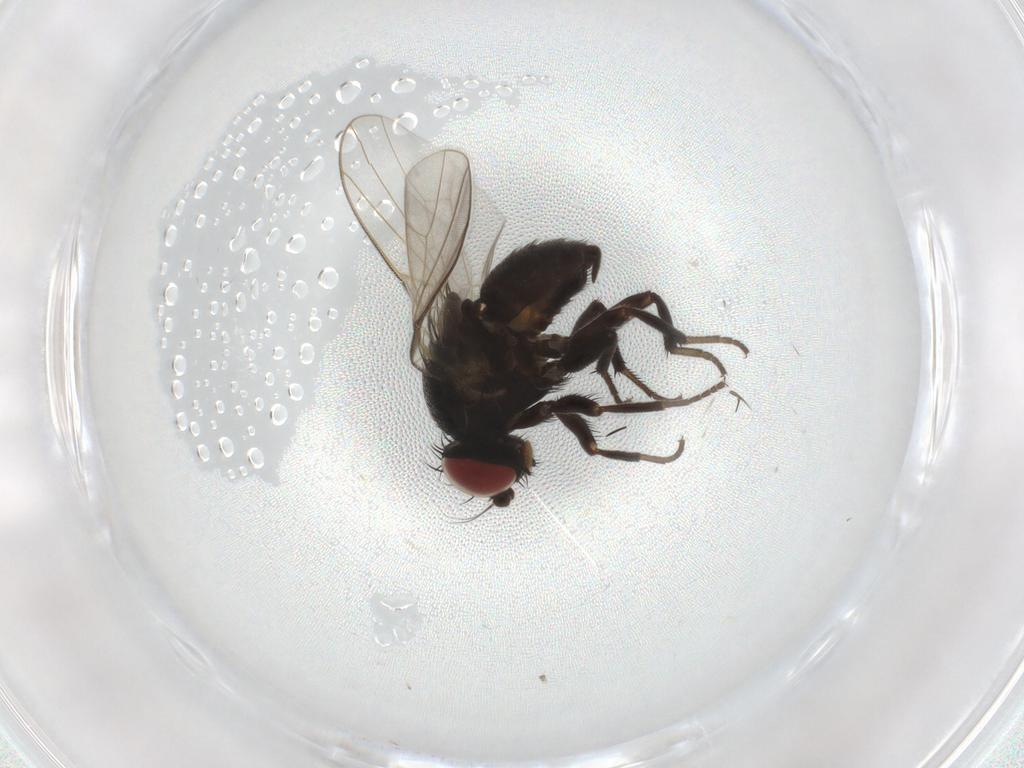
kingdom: Animalia
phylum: Arthropoda
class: Insecta
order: Diptera
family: Agromyzidae
